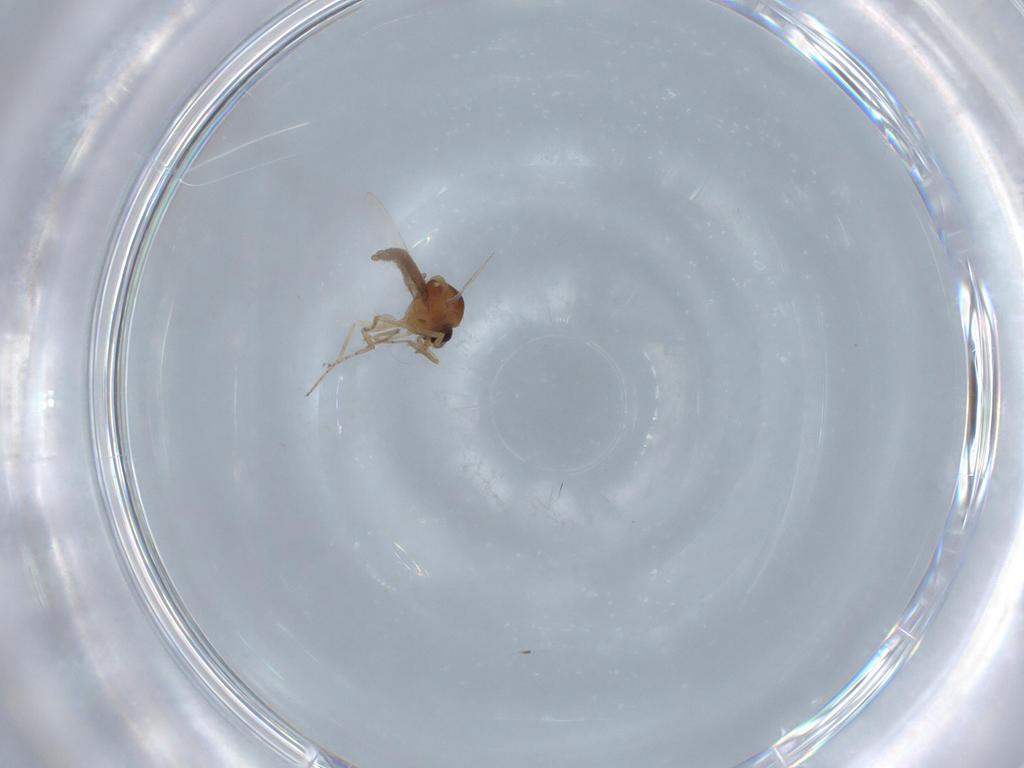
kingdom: Animalia
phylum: Arthropoda
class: Insecta
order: Diptera
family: Ceratopogonidae
